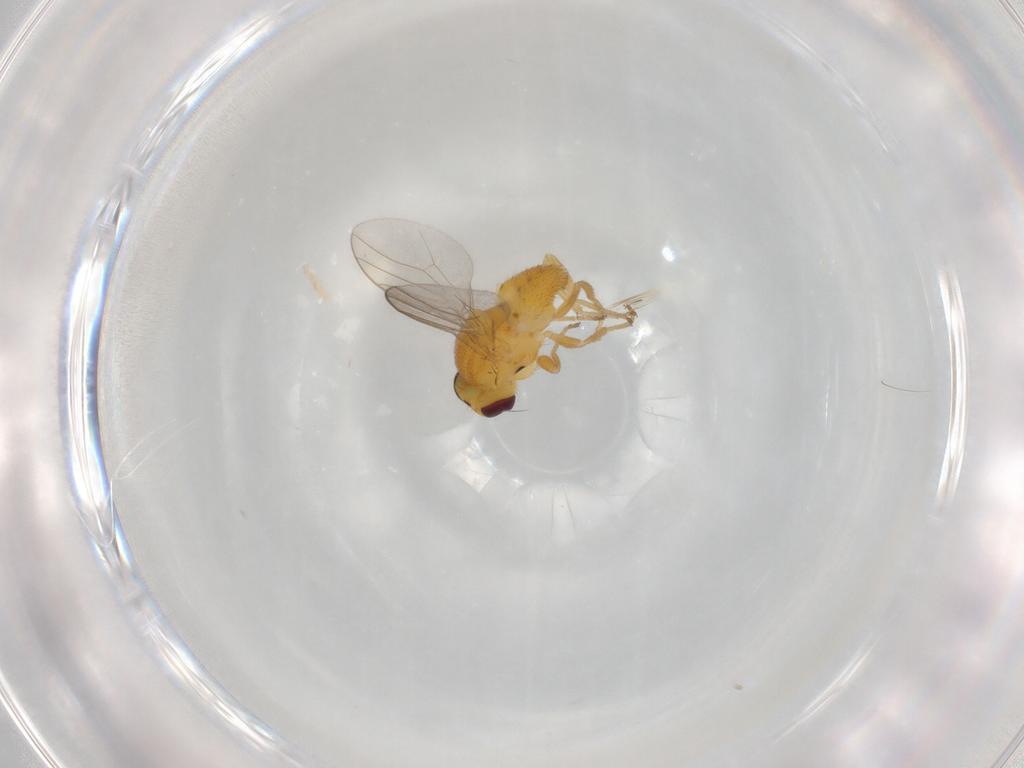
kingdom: Animalia
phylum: Arthropoda
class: Insecta
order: Diptera
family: Chloropidae
